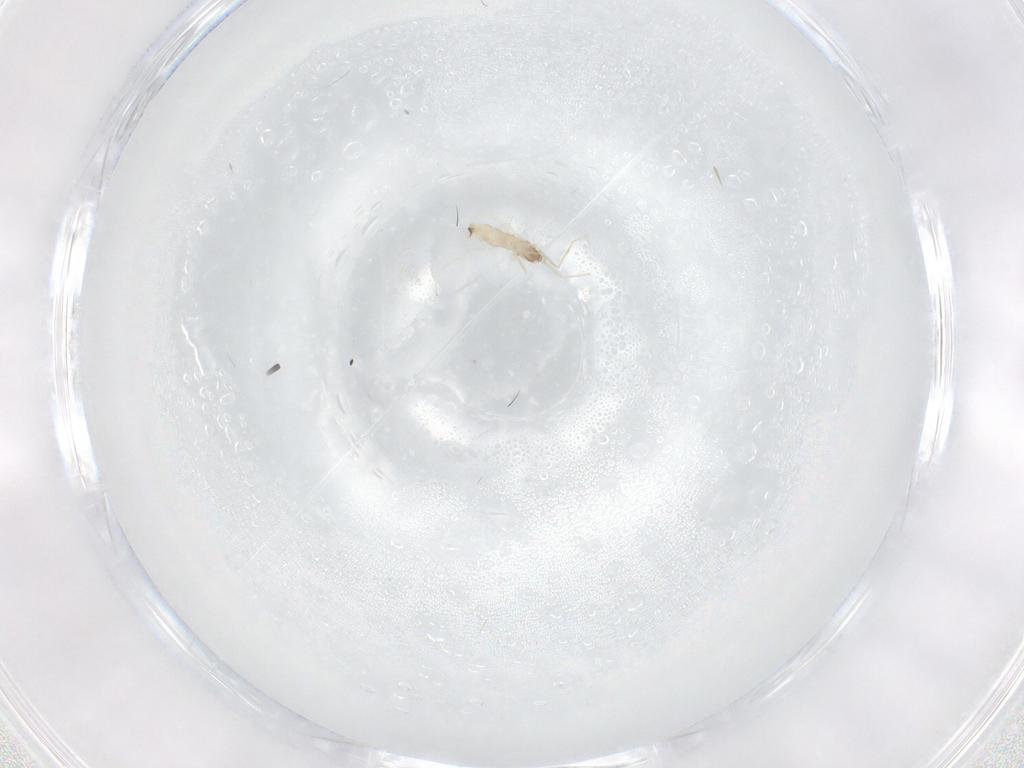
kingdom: Animalia
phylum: Arthropoda
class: Insecta
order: Diptera
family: Cecidomyiidae
